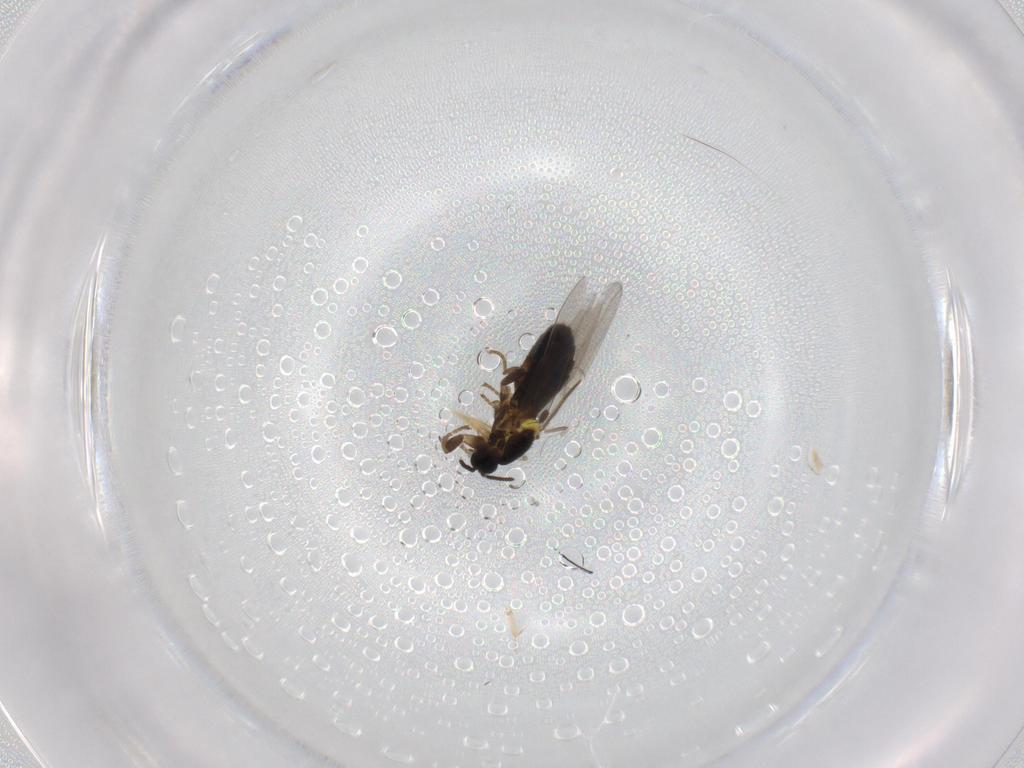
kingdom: Animalia
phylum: Arthropoda
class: Insecta
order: Diptera
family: Scatopsidae
